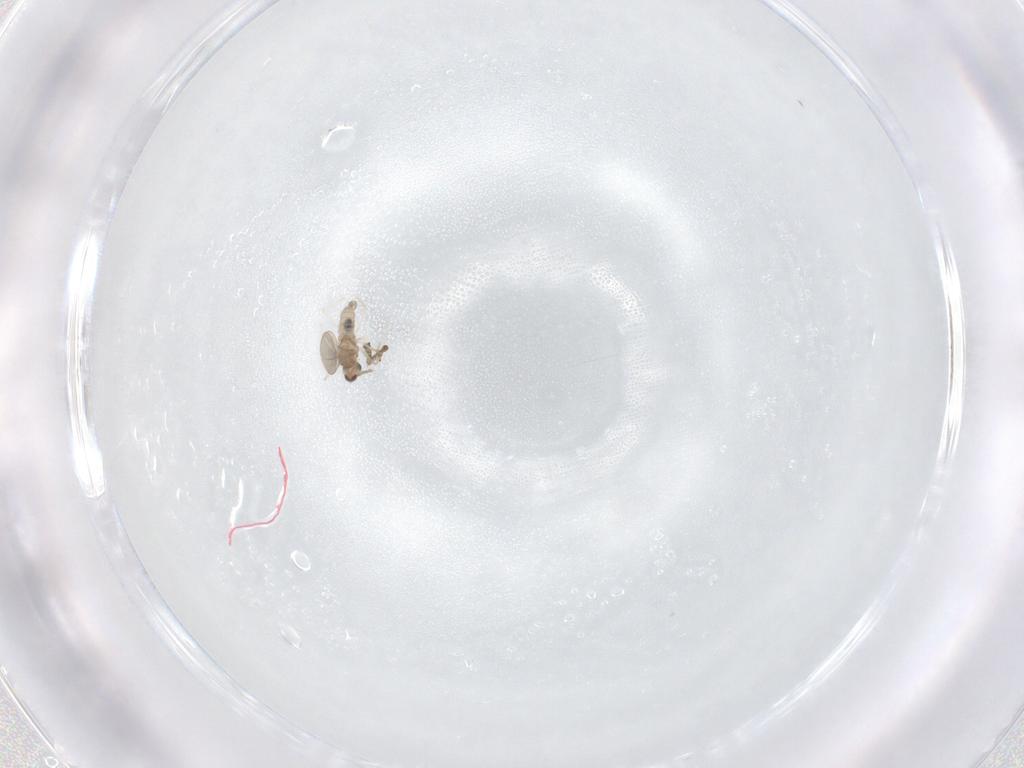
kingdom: Animalia
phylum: Arthropoda
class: Insecta
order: Diptera
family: Cecidomyiidae
